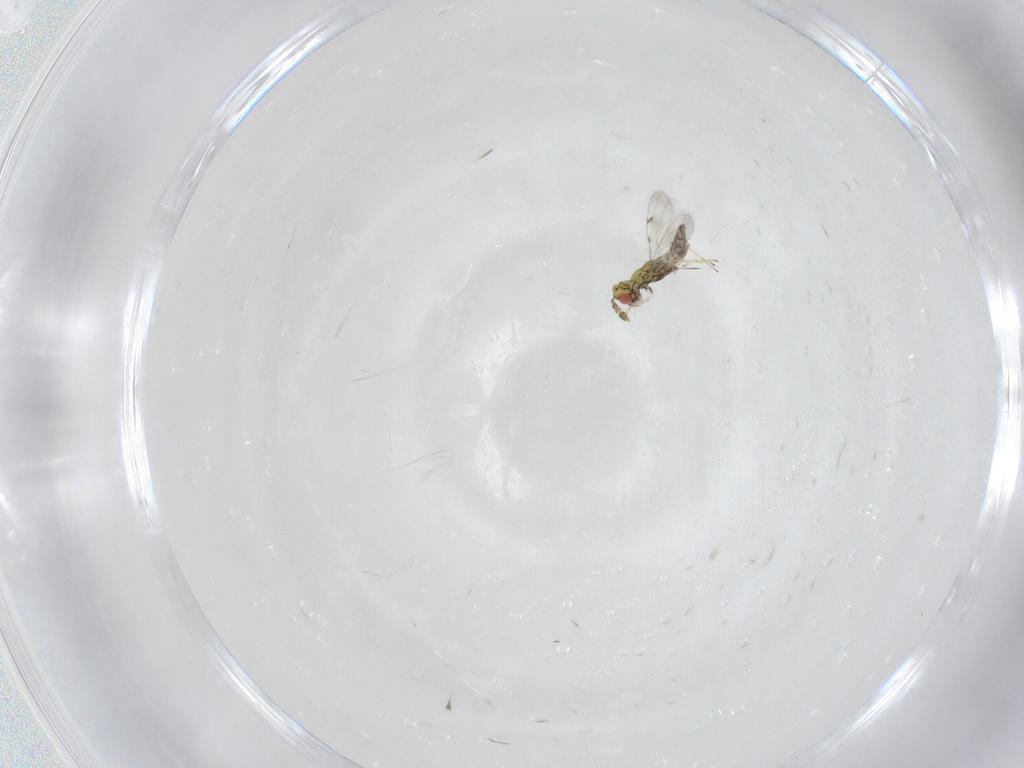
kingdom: Animalia
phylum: Arthropoda
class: Insecta
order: Hymenoptera
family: Eulophidae
